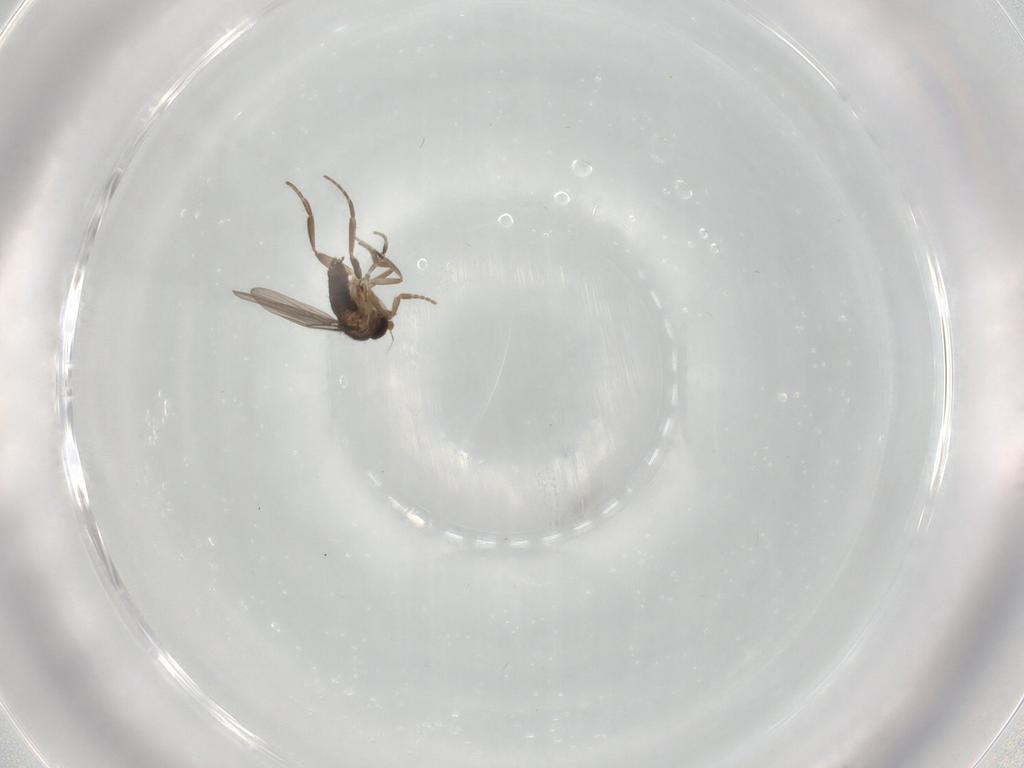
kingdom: Animalia
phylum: Arthropoda
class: Insecta
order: Diptera
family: Phoridae
